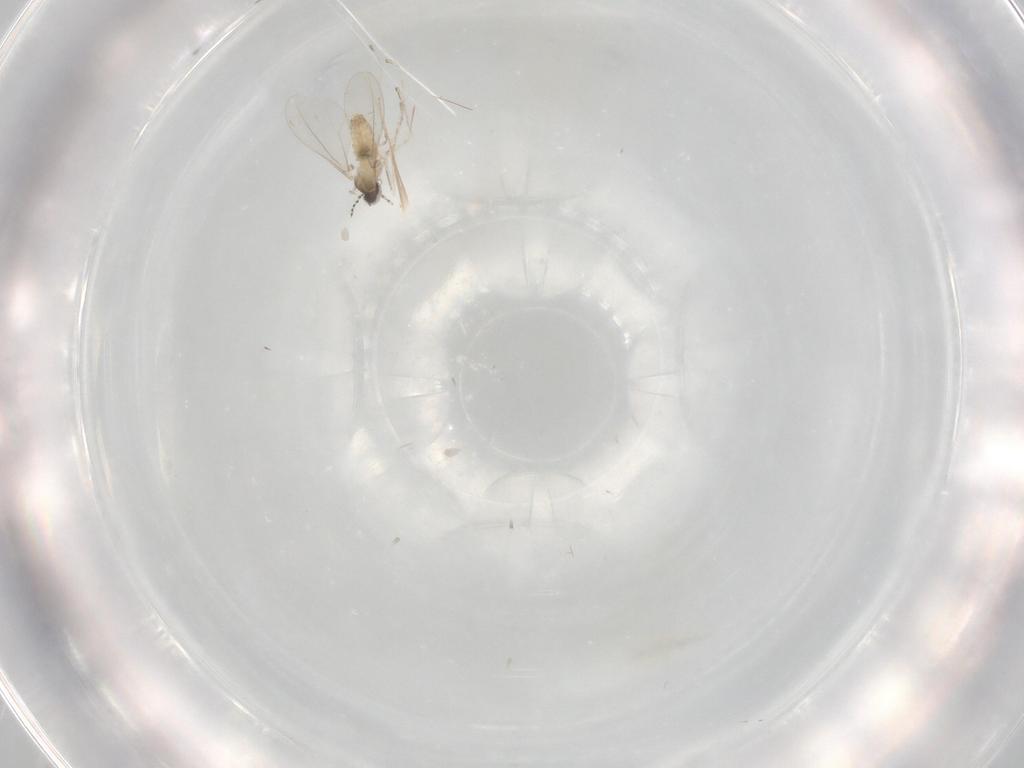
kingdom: Animalia
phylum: Arthropoda
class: Insecta
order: Diptera
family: Cecidomyiidae
